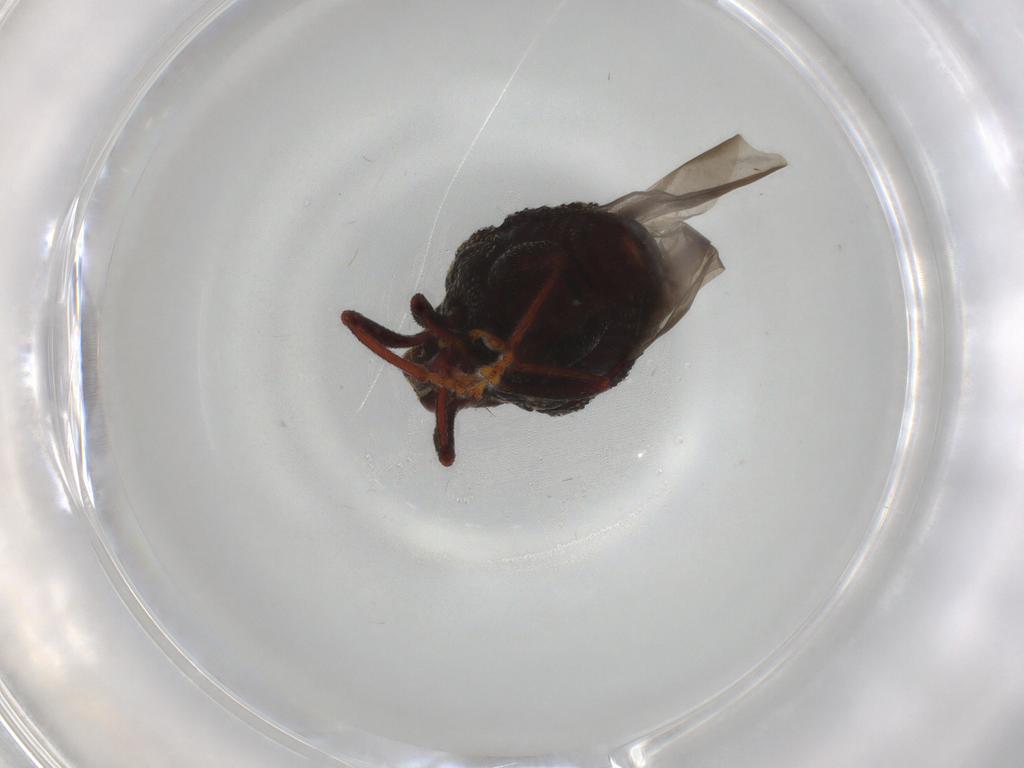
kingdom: Animalia
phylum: Arthropoda
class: Insecta
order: Coleoptera
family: Curculionidae
